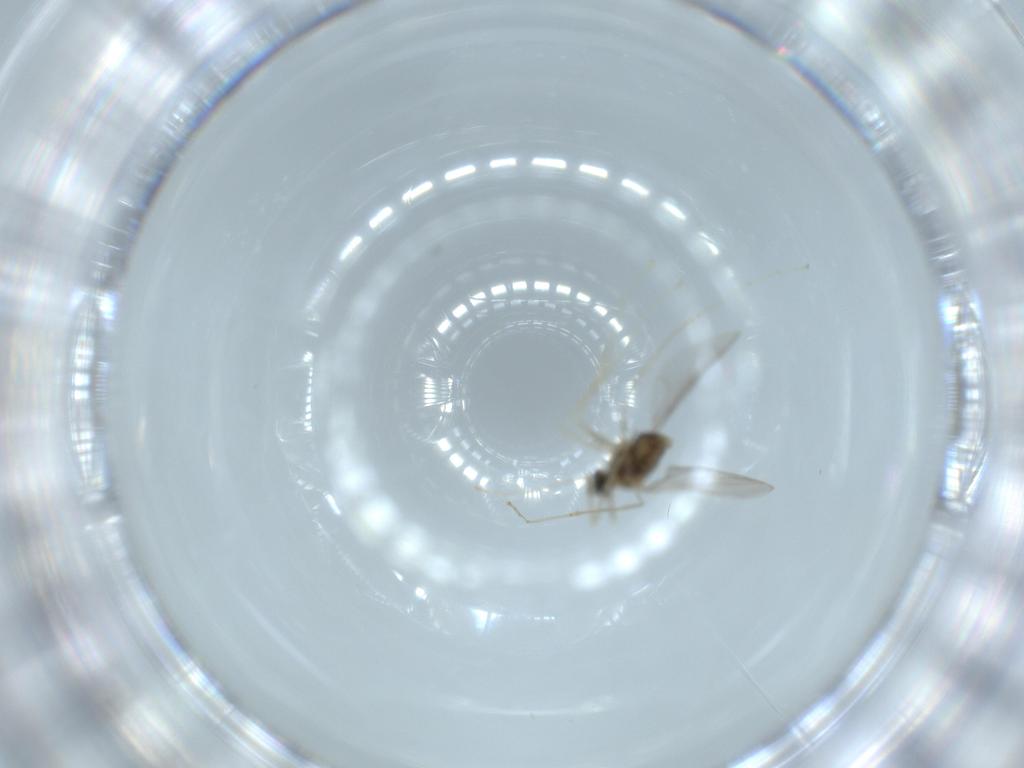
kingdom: Animalia
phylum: Arthropoda
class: Insecta
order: Diptera
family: Cecidomyiidae
